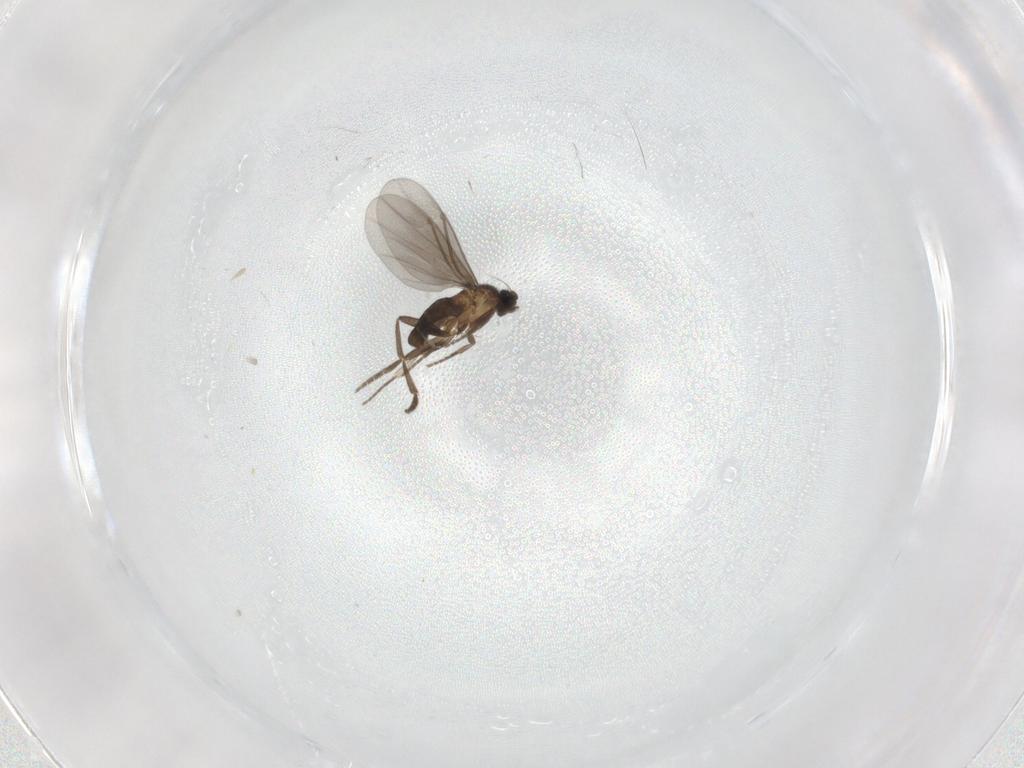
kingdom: Animalia
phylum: Arthropoda
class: Insecta
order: Diptera
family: Phoridae
